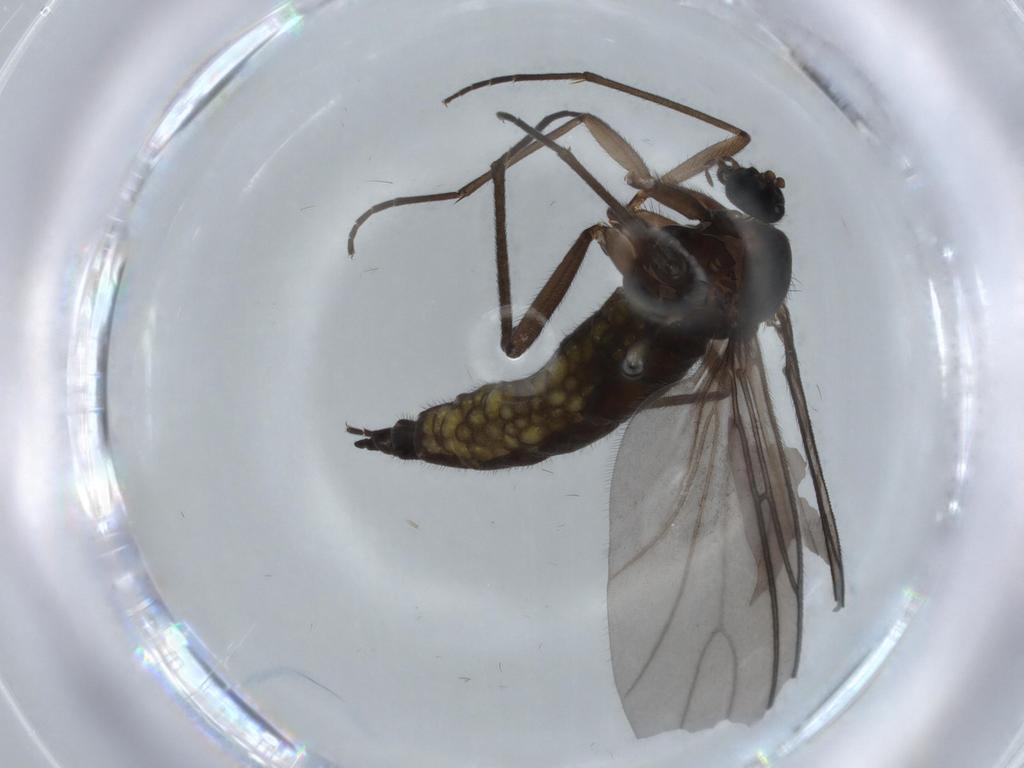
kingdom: Animalia
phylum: Arthropoda
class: Insecta
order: Diptera
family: Sciaridae
